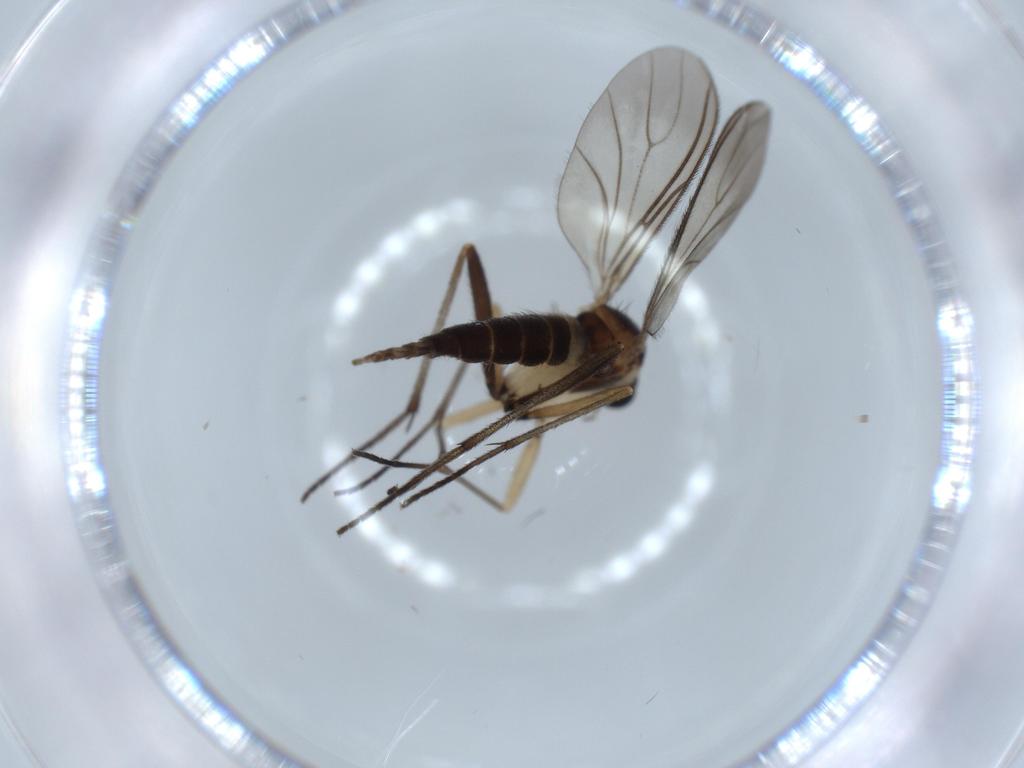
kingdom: Animalia
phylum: Arthropoda
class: Insecta
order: Diptera
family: Sciaridae
